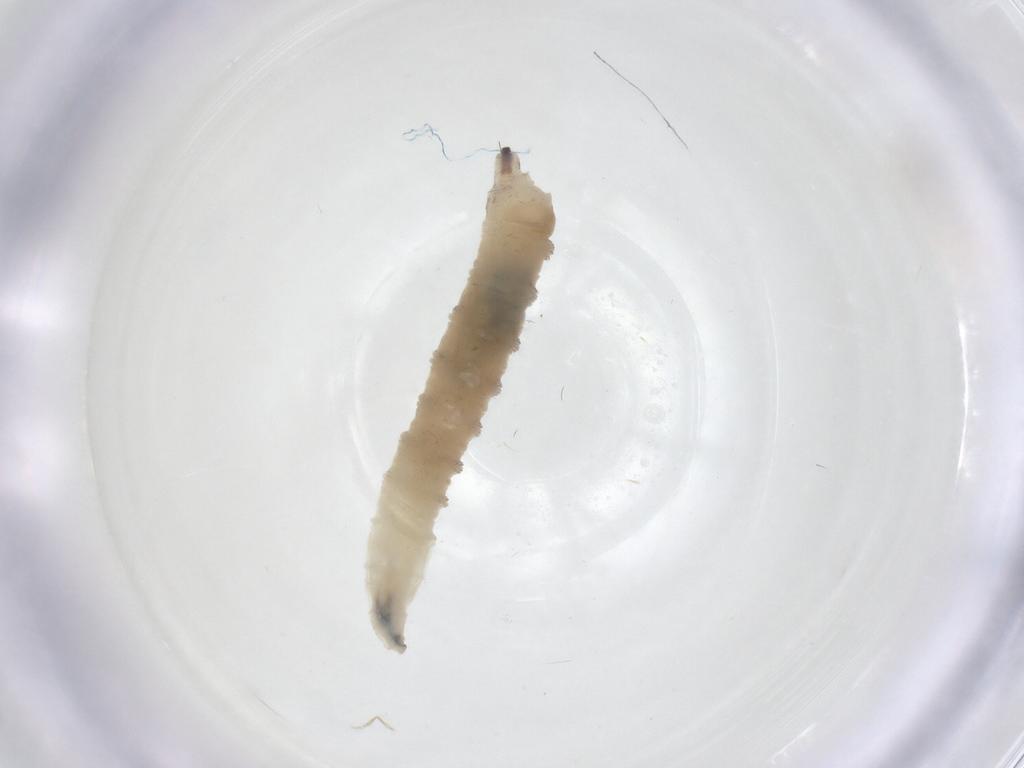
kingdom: Animalia
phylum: Arthropoda
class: Insecta
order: Diptera
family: Drosophilidae
